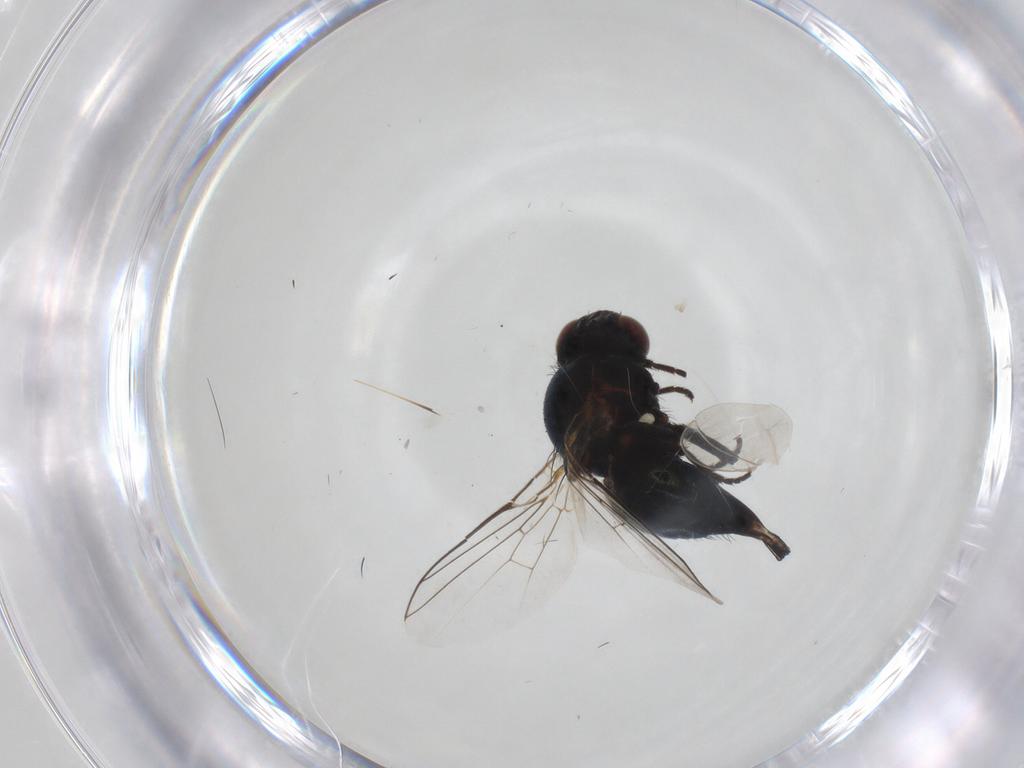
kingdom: Animalia
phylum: Arthropoda
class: Insecta
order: Diptera
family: Agromyzidae
